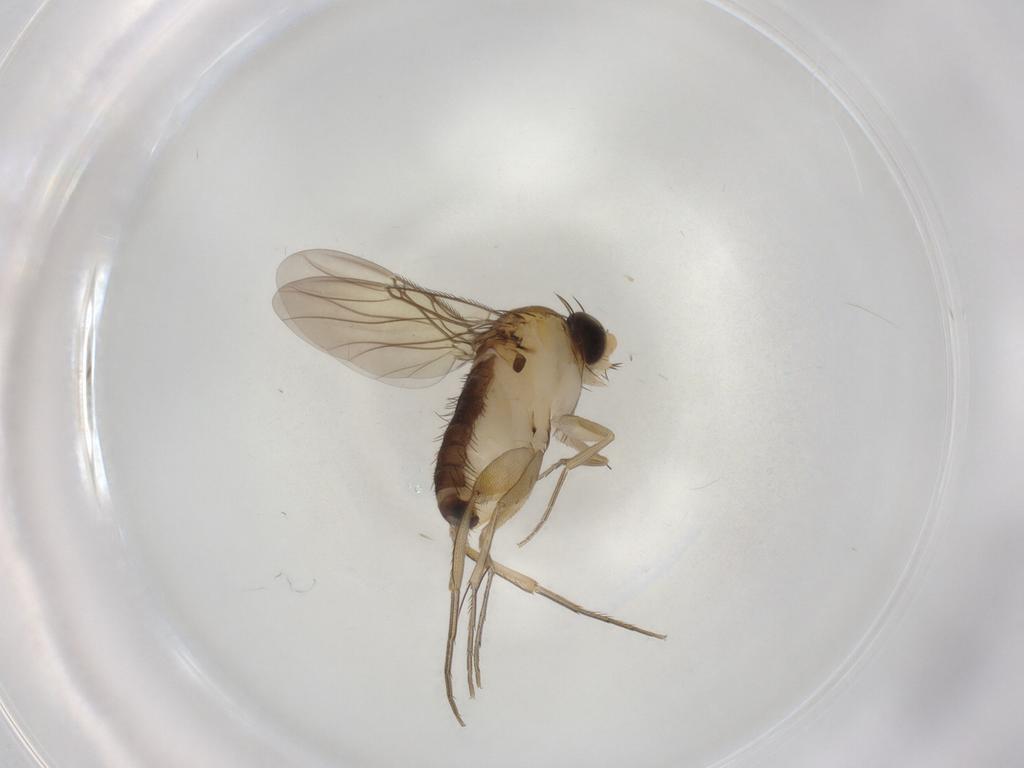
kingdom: Animalia
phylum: Arthropoda
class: Insecta
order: Diptera
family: Phoridae
